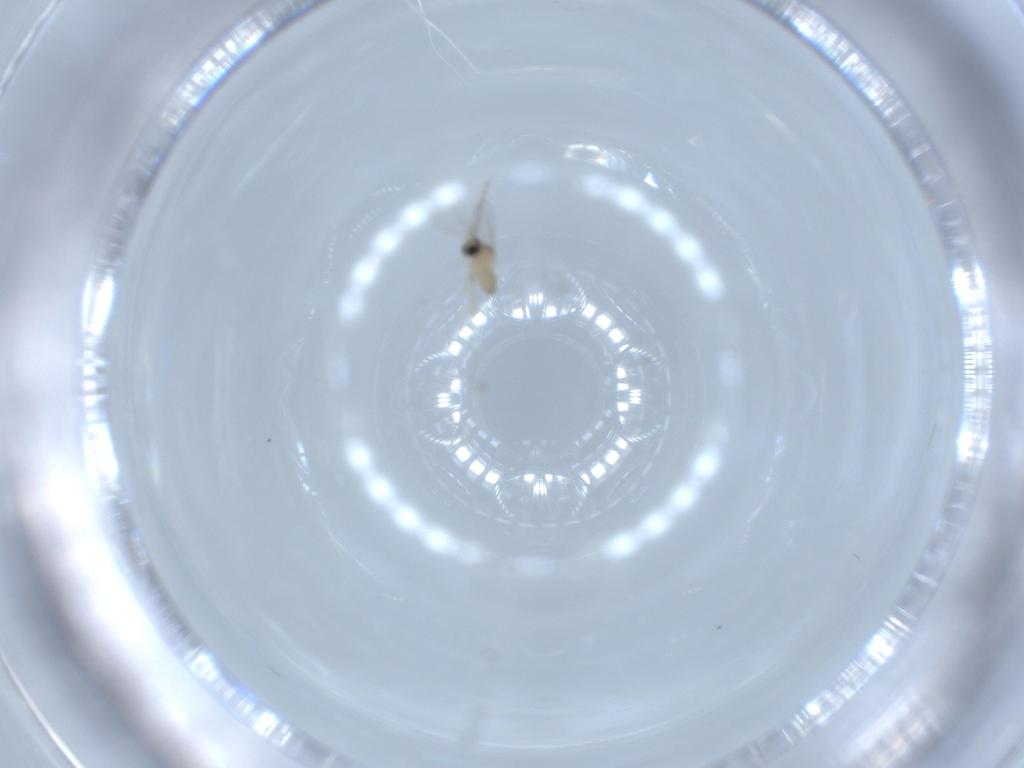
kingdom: Animalia
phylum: Arthropoda
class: Insecta
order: Diptera
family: Cecidomyiidae
